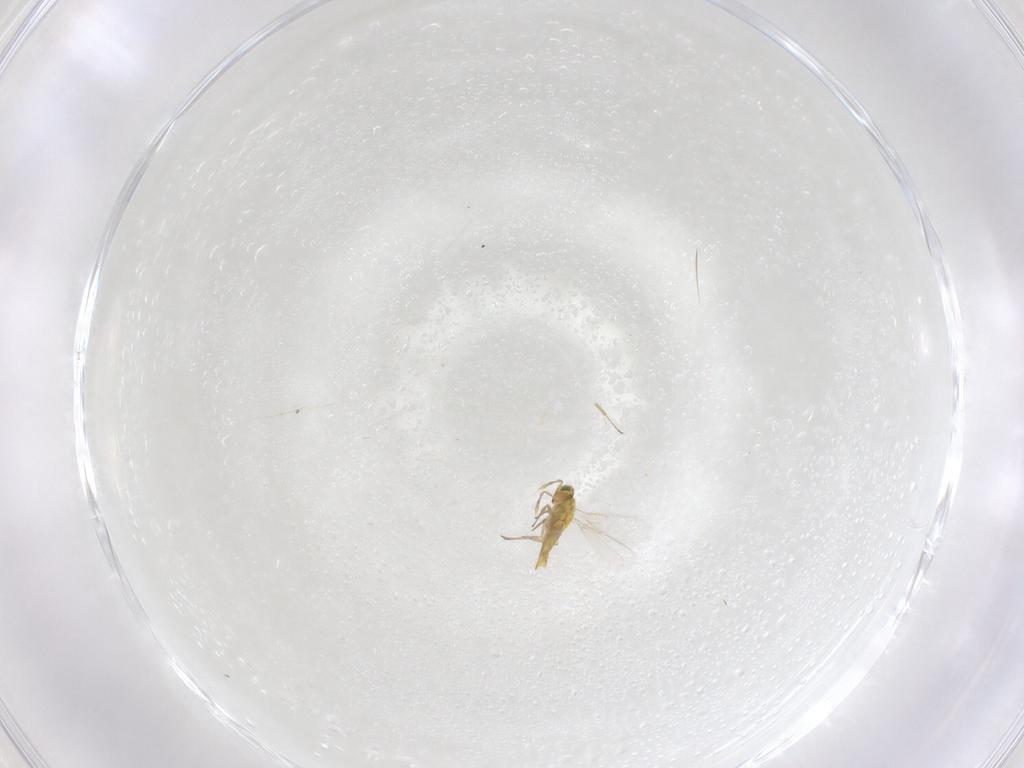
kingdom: Animalia
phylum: Arthropoda
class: Insecta
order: Hymenoptera
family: Aphelinidae
